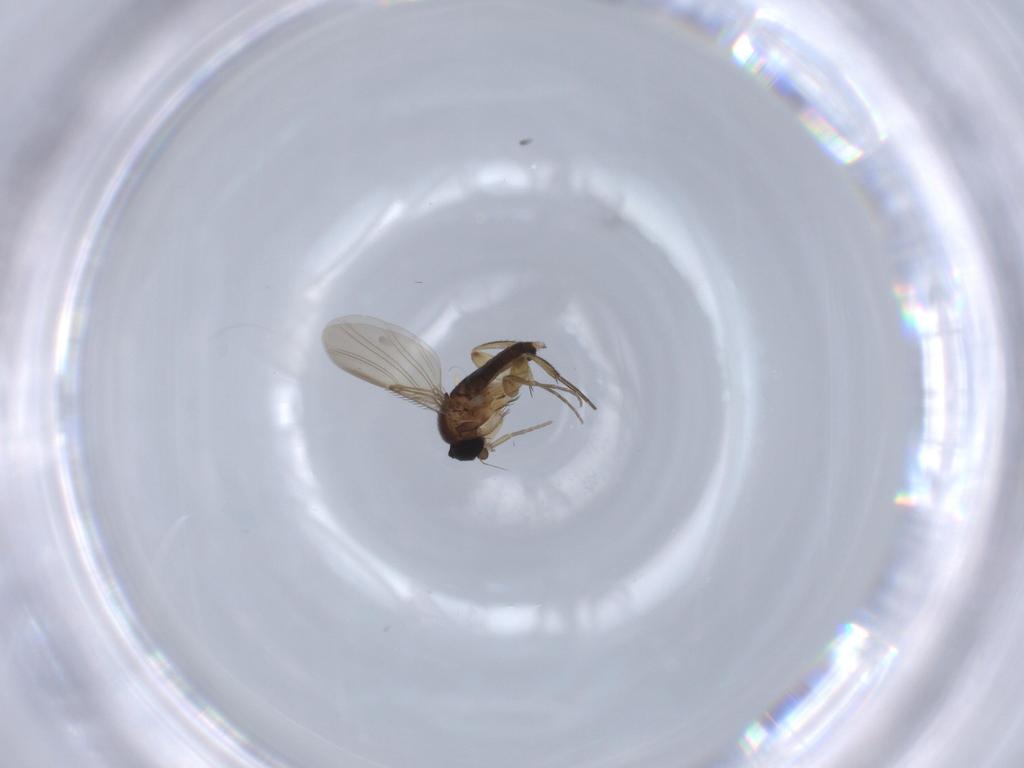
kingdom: Animalia
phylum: Arthropoda
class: Insecta
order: Diptera
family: Phoridae
